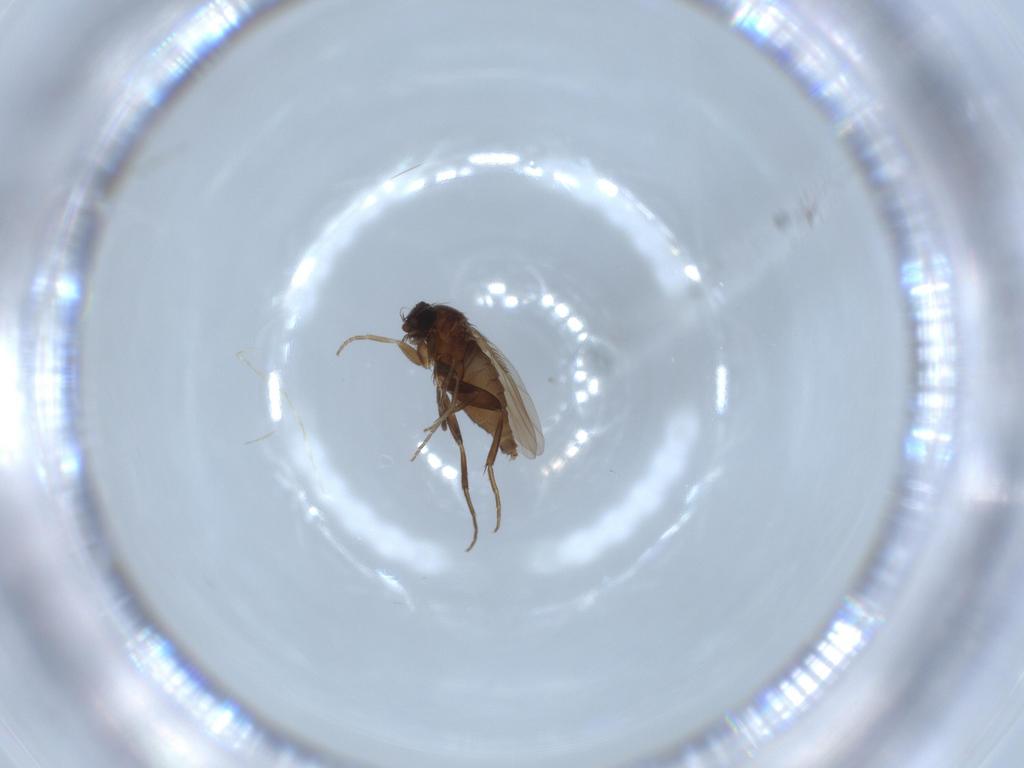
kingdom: Animalia
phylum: Arthropoda
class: Insecta
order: Diptera
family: Phoridae
